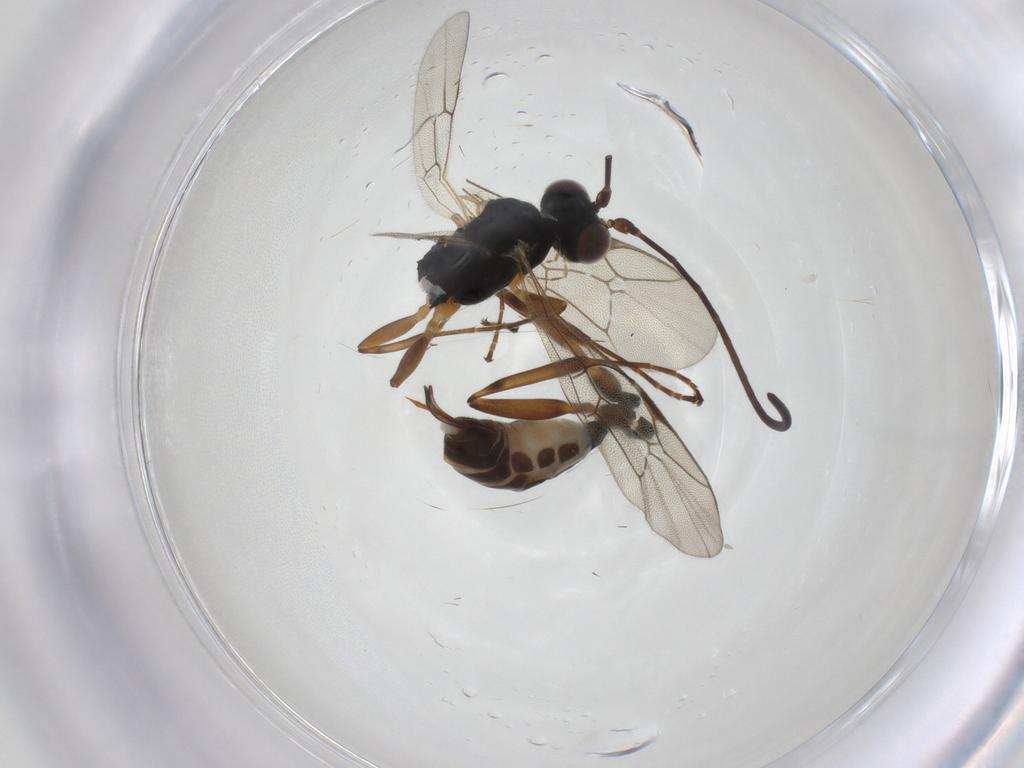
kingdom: Animalia
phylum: Arthropoda
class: Insecta
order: Hymenoptera
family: Ichneumonidae
